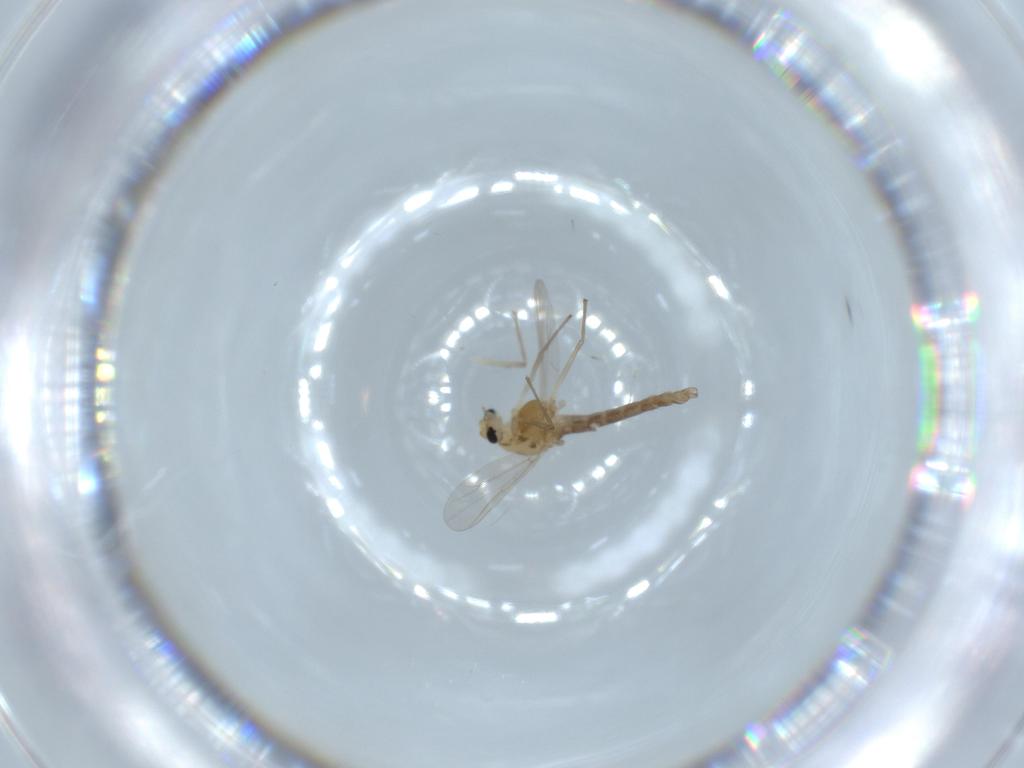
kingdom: Animalia
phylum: Arthropoda
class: Insecta
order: Diptera
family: Chironomidae
